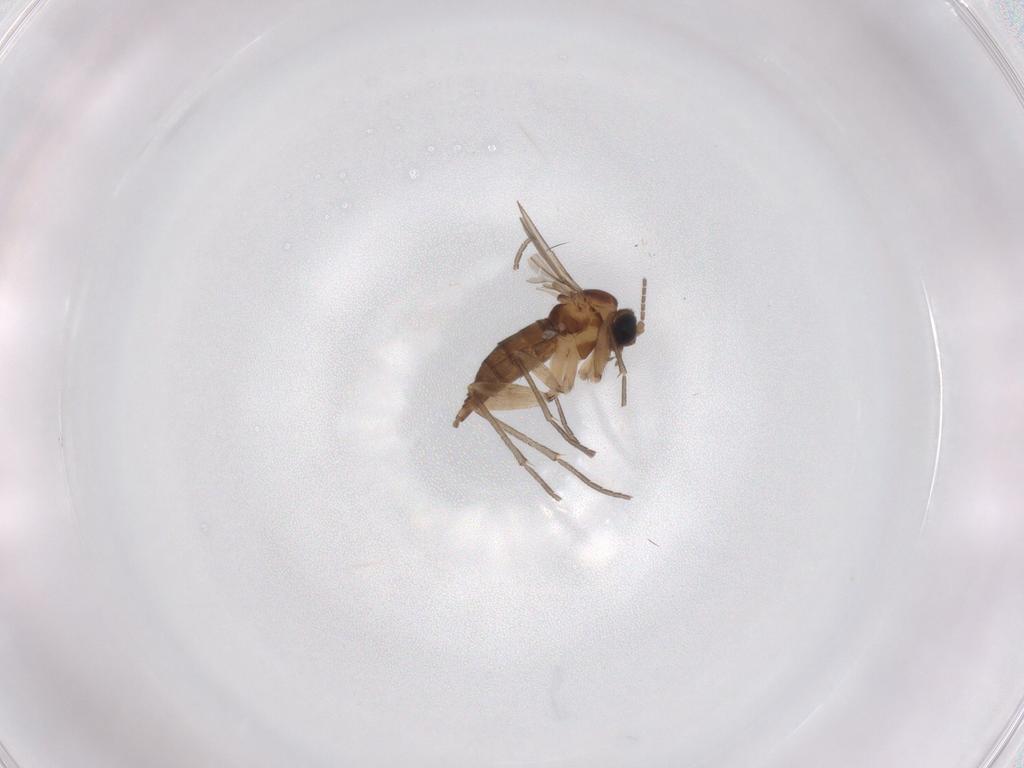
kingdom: Animalia
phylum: Arthropoda
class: Insecta
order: Diptera
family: Sciaridae
